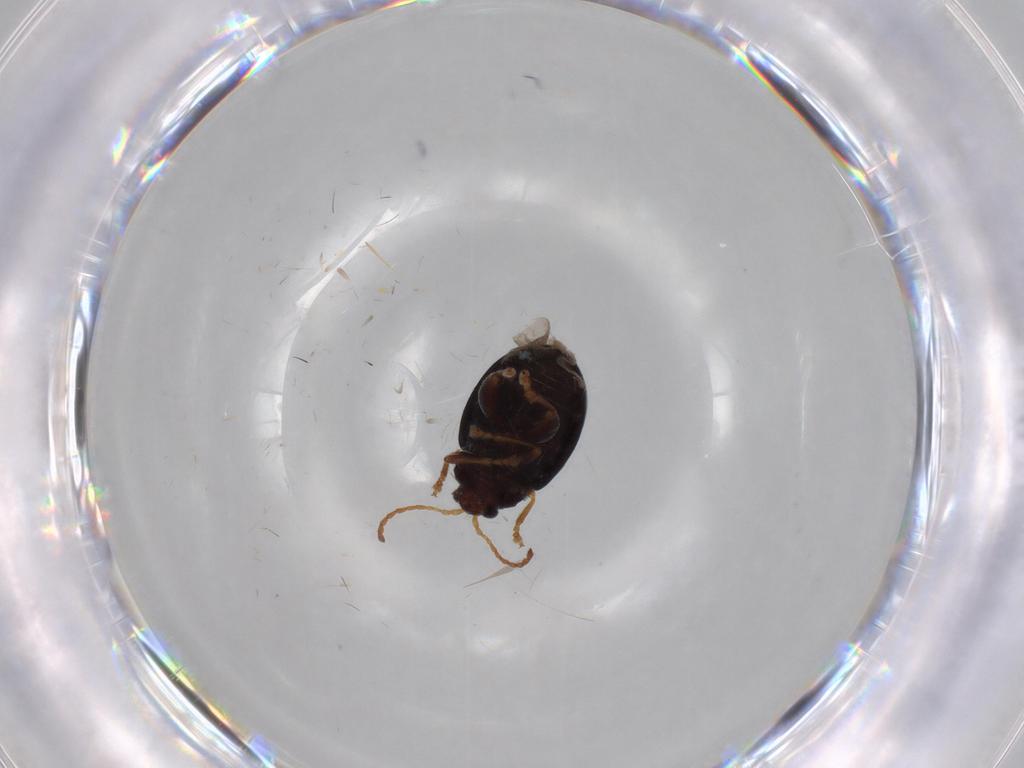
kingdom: Animalia
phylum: Arthropoda
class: Insecta
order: Coleoptera
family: Chrysomelidae
